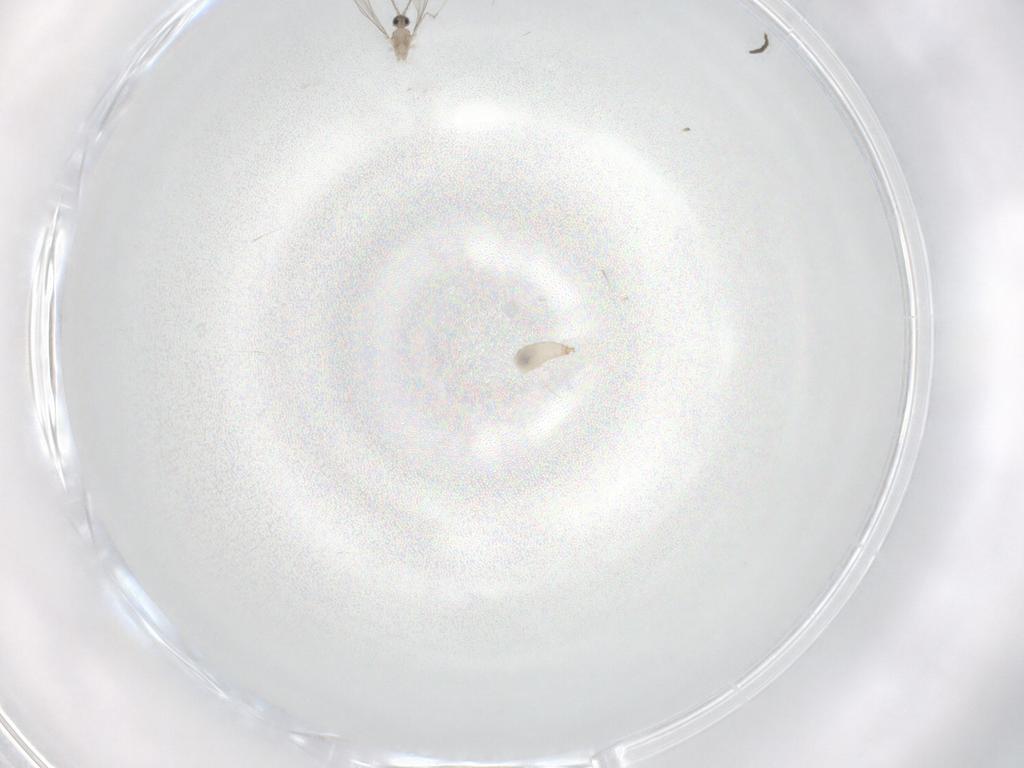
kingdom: Animalia
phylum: Arthropoda
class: Insecta
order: Diptera
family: Cecidomyiidae
